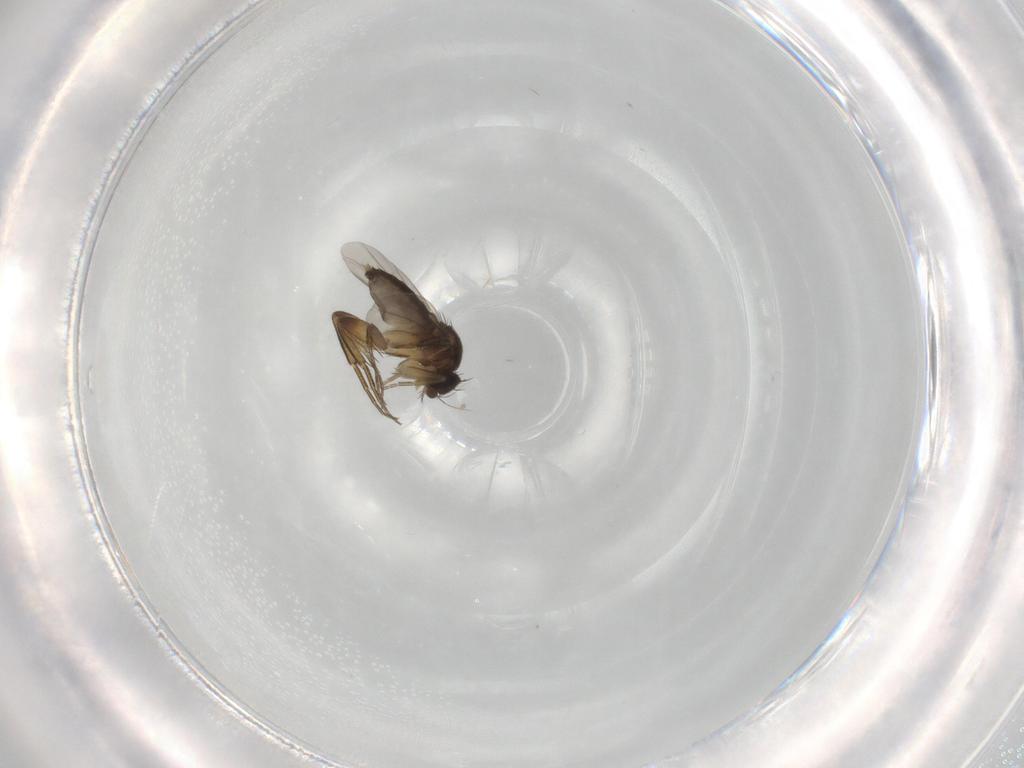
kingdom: Animalia
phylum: Arthropoda
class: Insecta
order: Diptera
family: Phoridae
